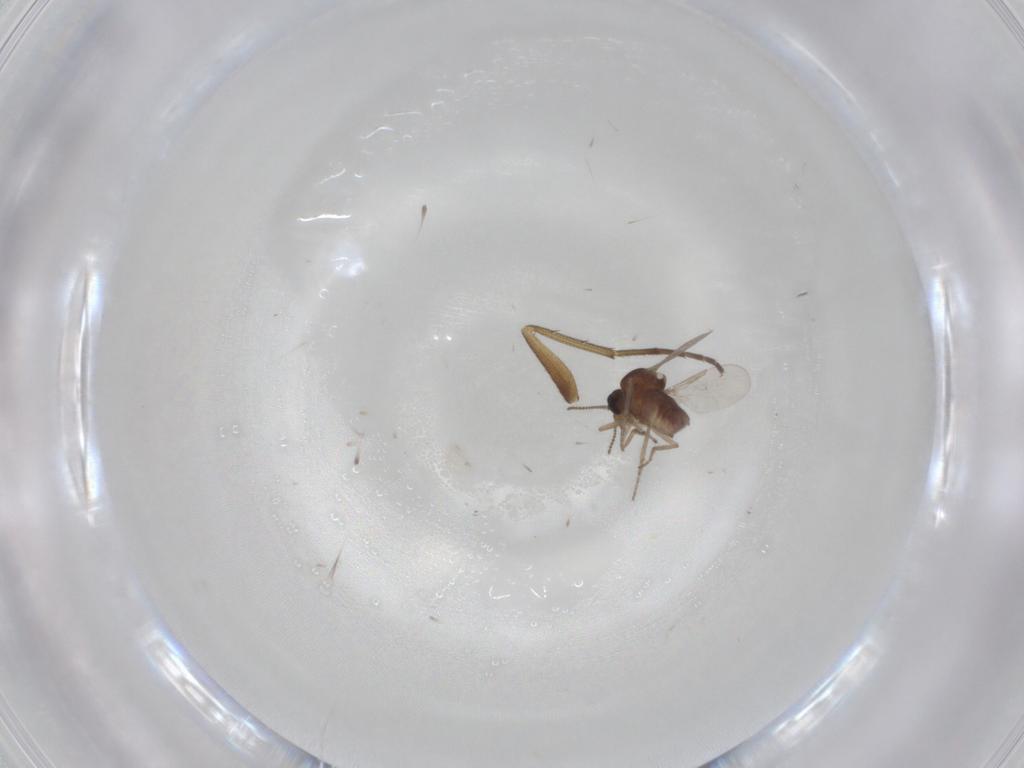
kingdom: Animalia
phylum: Arthropoda
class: Insecta
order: Diptera
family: Ceratopogonidae
